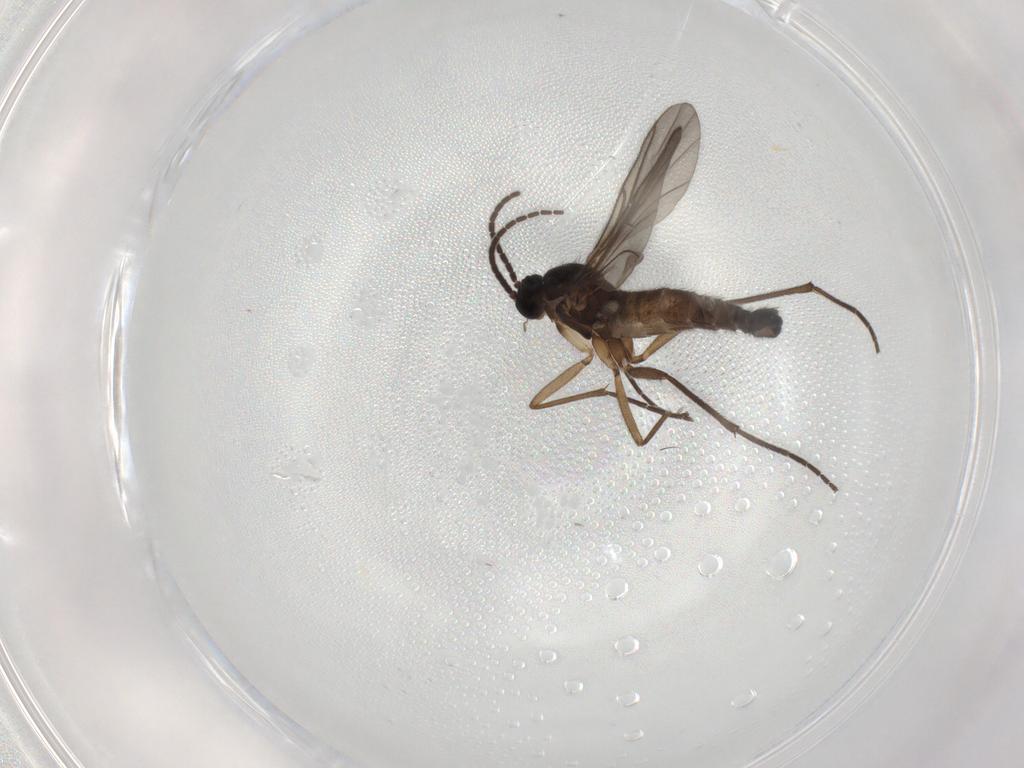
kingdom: Animalia
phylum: Arthropoda
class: Insecta
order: Diptera
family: Sciaridae
